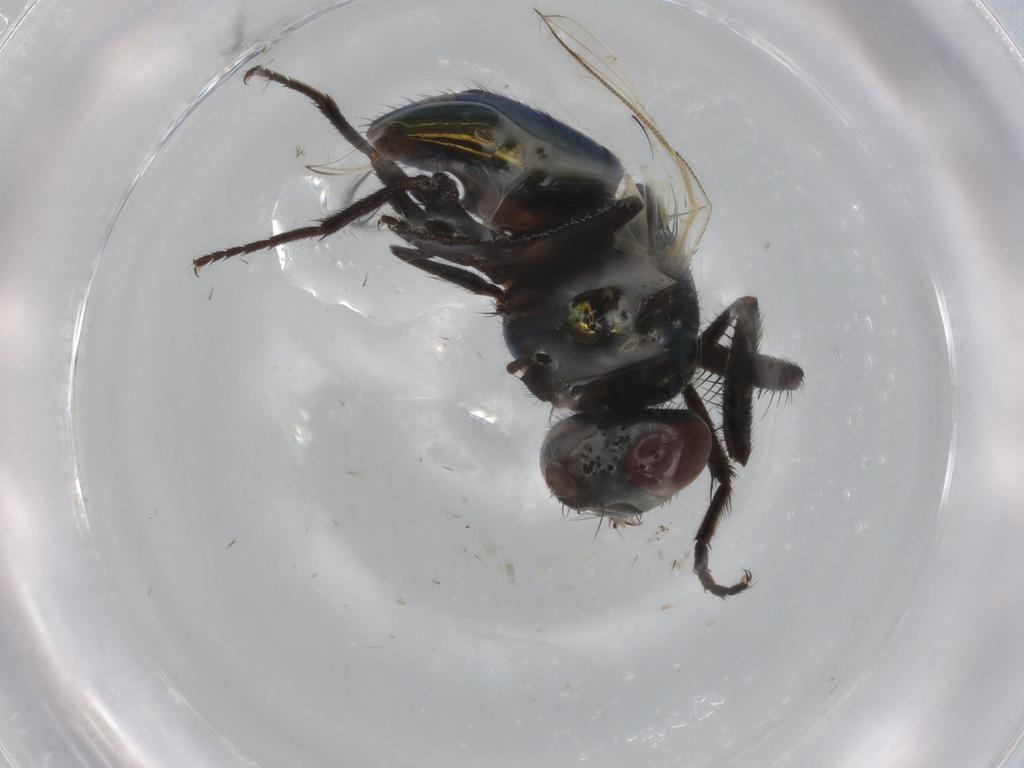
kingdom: Animalia
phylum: Arthropoda
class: Insecta
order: Diptera
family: Muscidae
